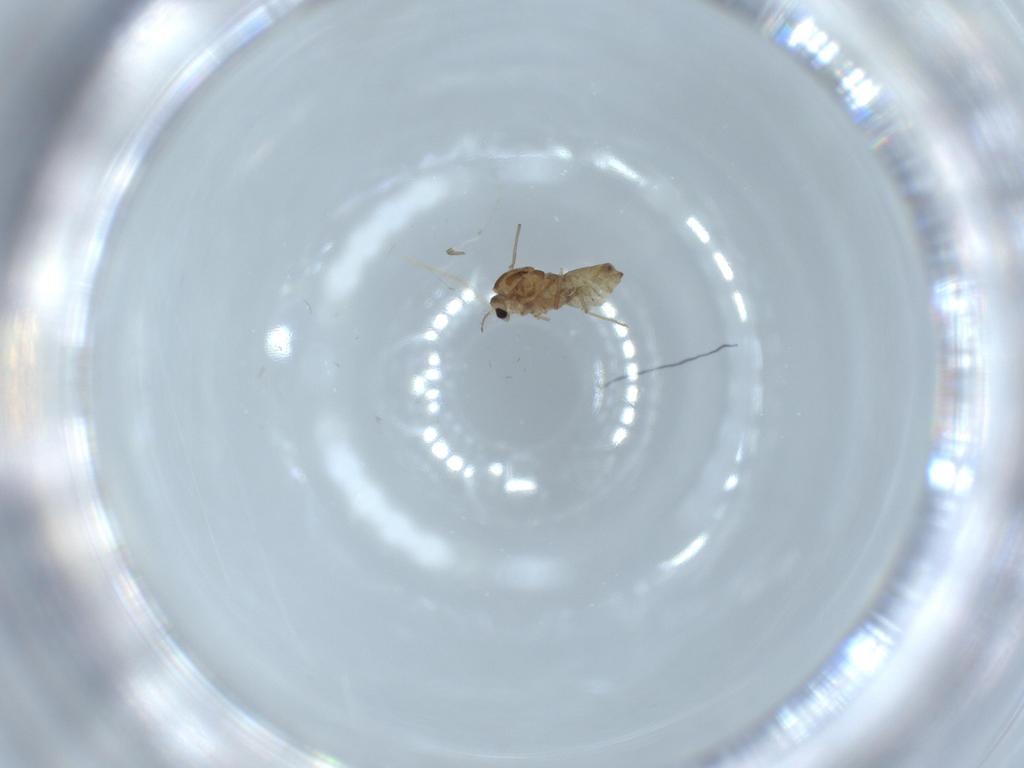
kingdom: Animalia
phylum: Arthropoda
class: Insecta
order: Diptera
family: Chironomidae
